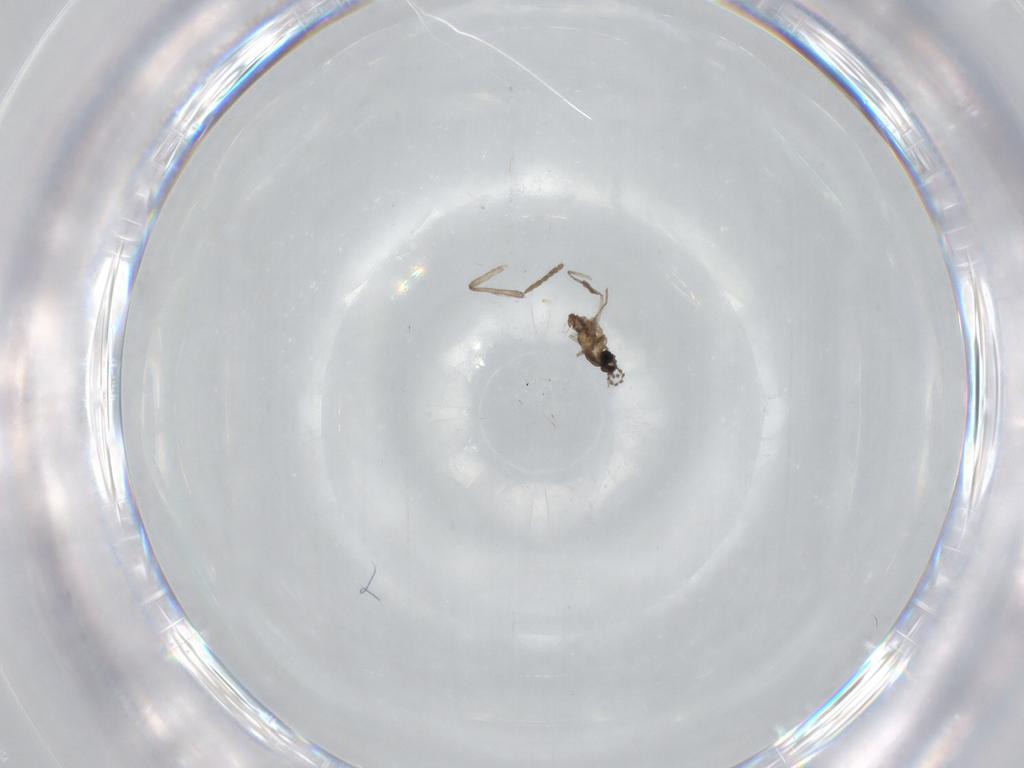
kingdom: Animalia
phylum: Arthropoda
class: Insecta
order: Diptera
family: Cecidomyiidae
